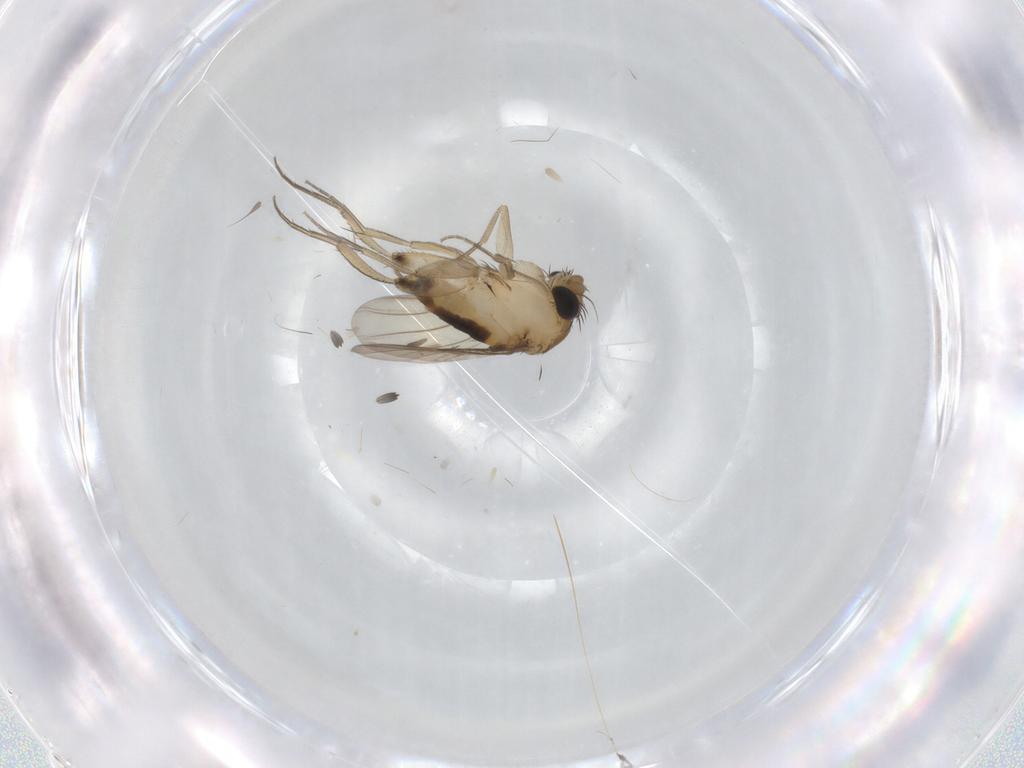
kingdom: Animalia
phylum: Arthropoda
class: Insecta
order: Diptera
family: Phoridae
